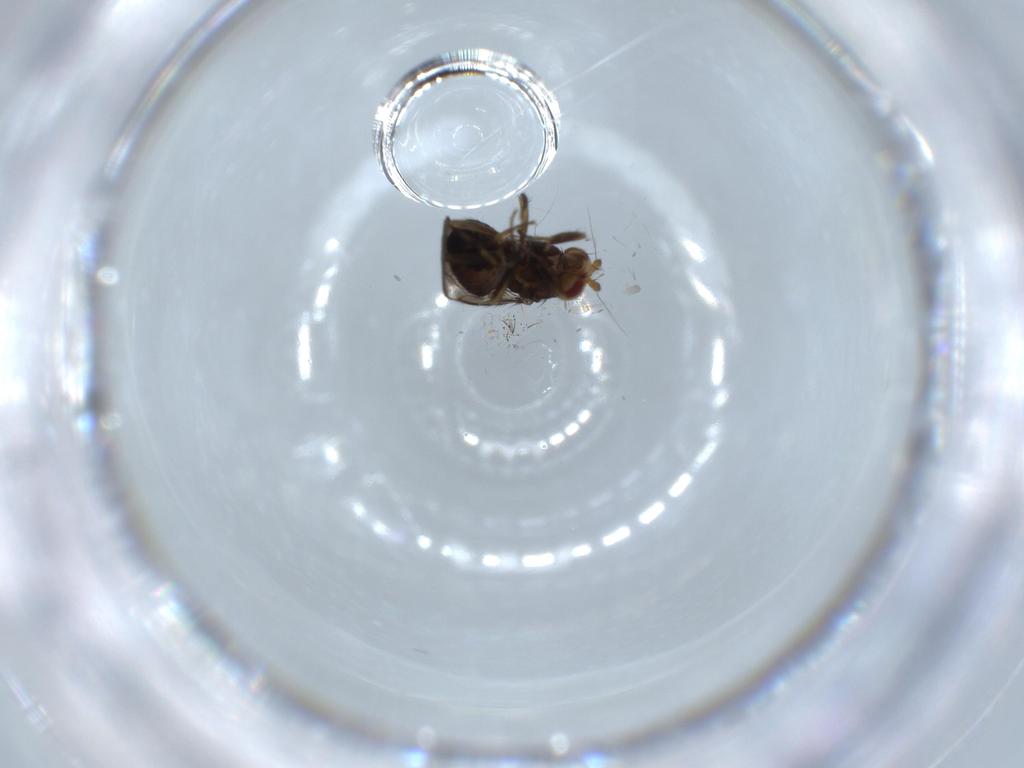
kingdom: Animalia
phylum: Arthropoda
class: Insecta
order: Diptera
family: Sphaeroceridae
